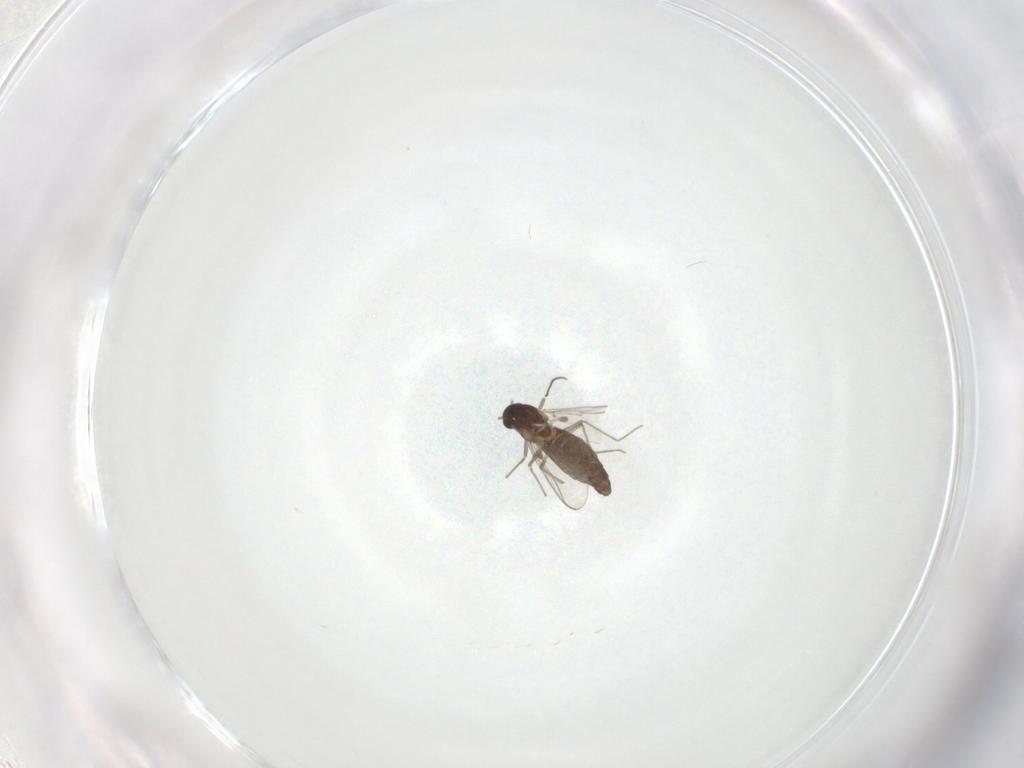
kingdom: Animalia
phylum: Arthropoda
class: Insecta
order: Diptera
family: Chironomidae
